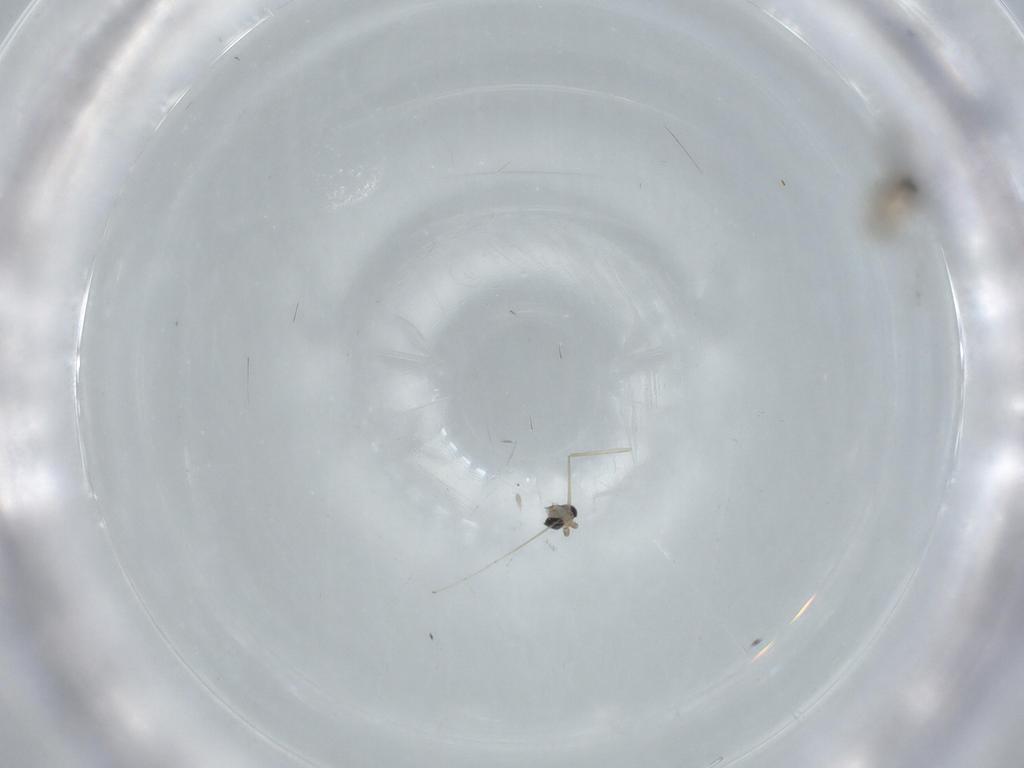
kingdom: Animalia
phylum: Arthropoda
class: Insecta
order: Diptera
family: Cecidomyiidae
